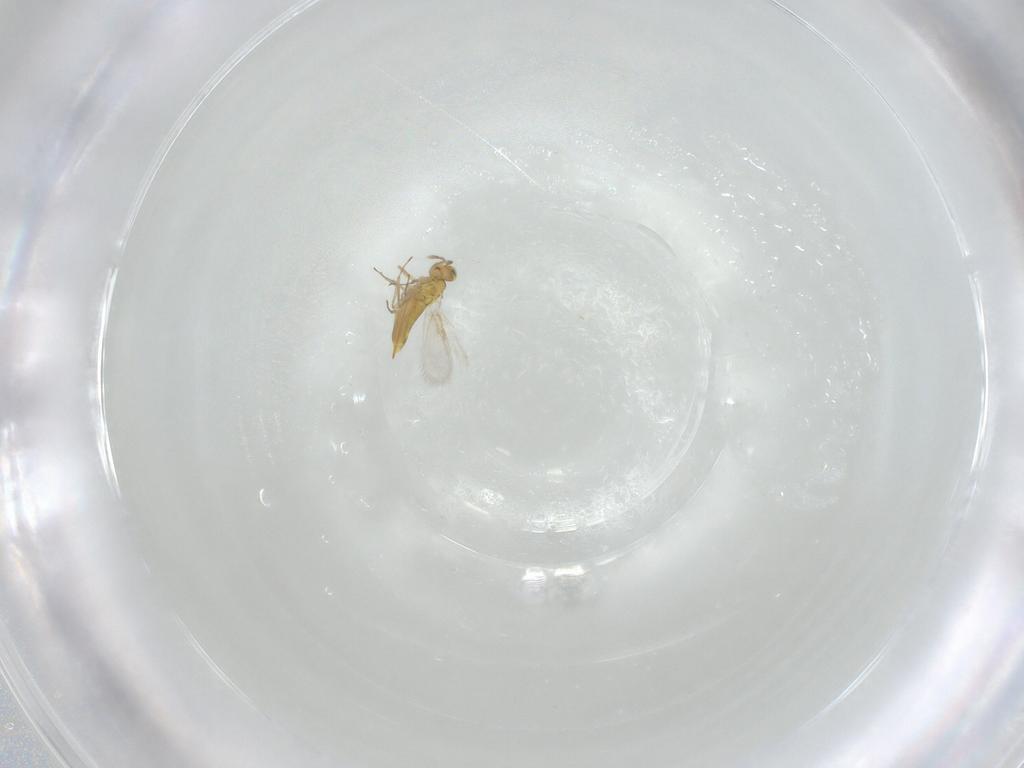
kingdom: Animalia
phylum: Arthropoda
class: Insecta
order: Hymenoptera
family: Aphelinidae
